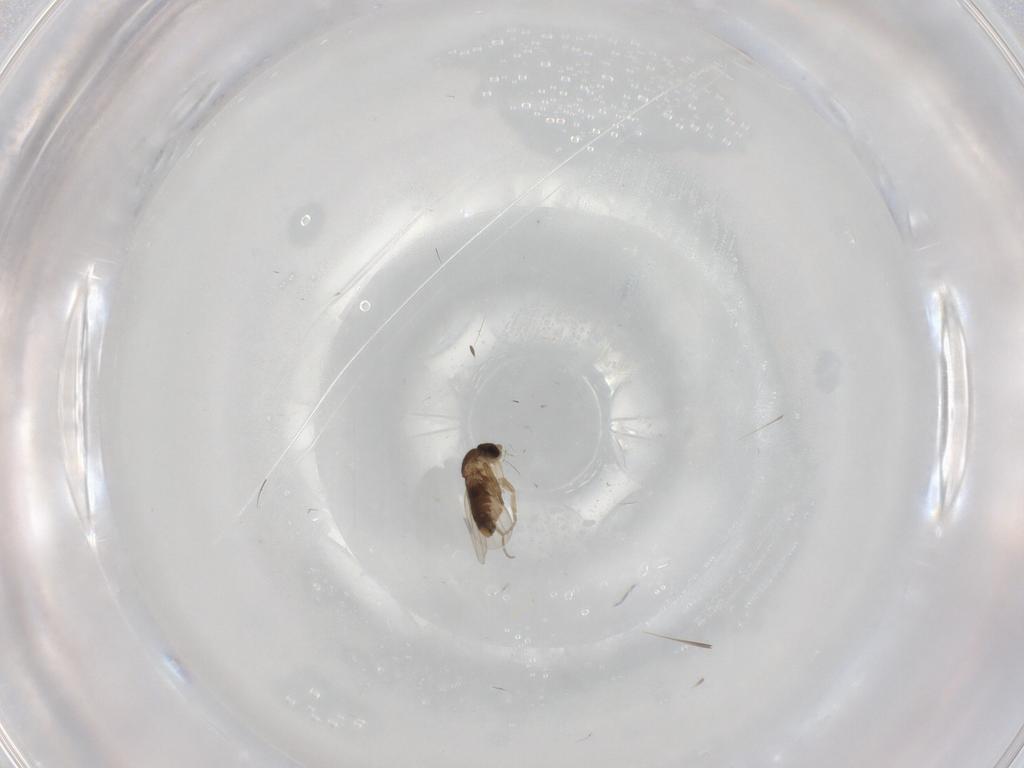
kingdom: Animalia
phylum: Arthropoda
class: Insecta
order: Diptera
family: Phoridae
